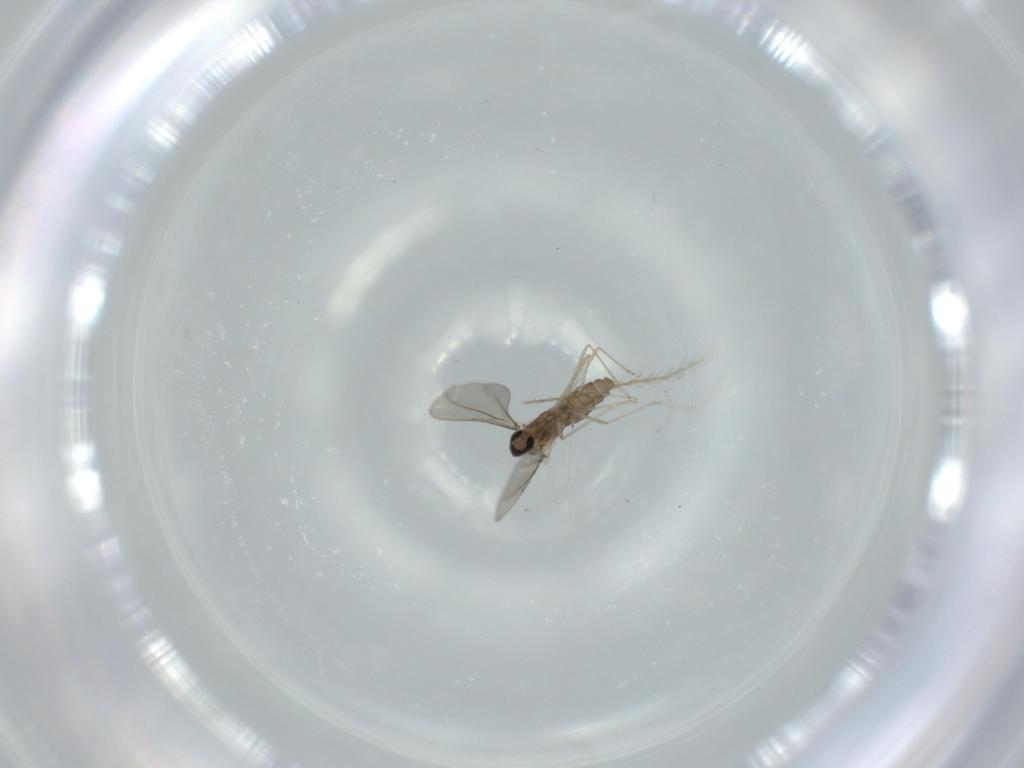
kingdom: Animalia
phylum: Arthropoda
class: Insecta
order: Diptera
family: Cecidomyiidae
